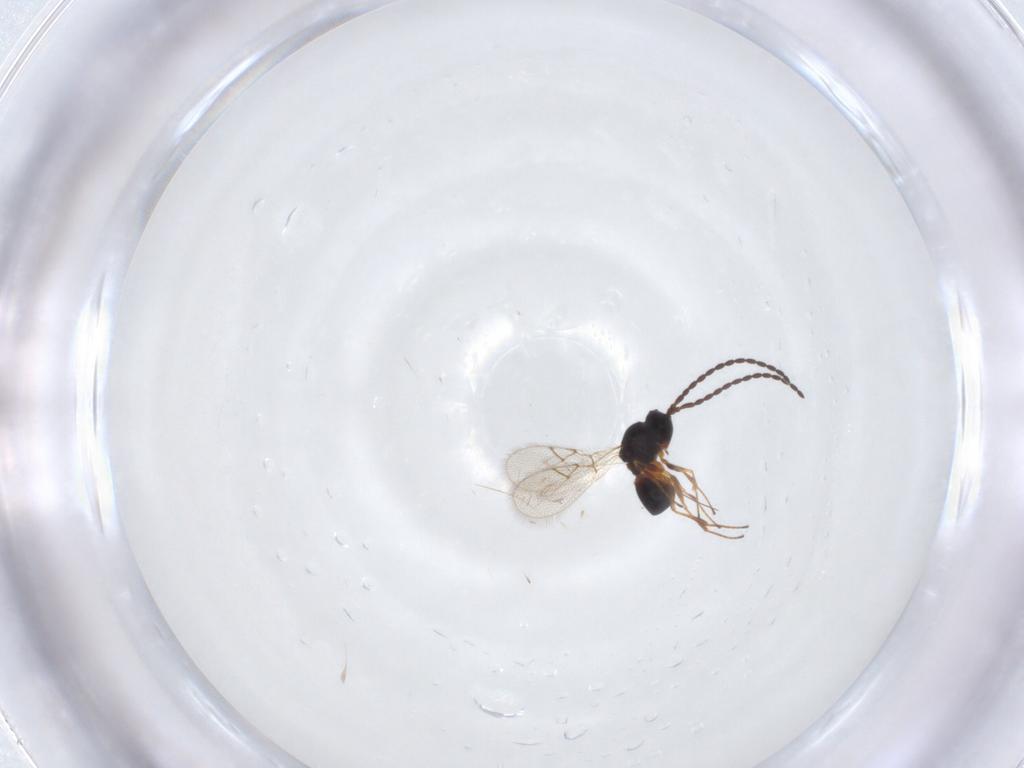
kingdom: Animalia
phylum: Arthropoda
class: Insecta
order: Hymenoptera
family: Figitidae
